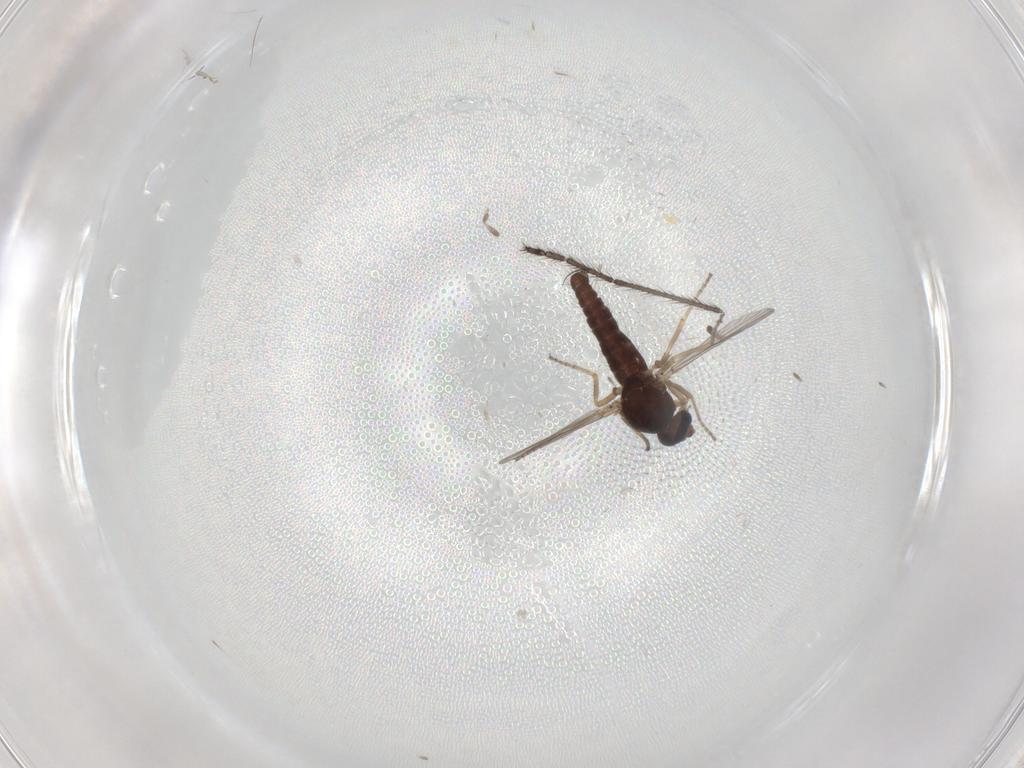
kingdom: Animalia
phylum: Arthropoda
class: Insecta
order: Diptera
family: Ceratopogonidae
